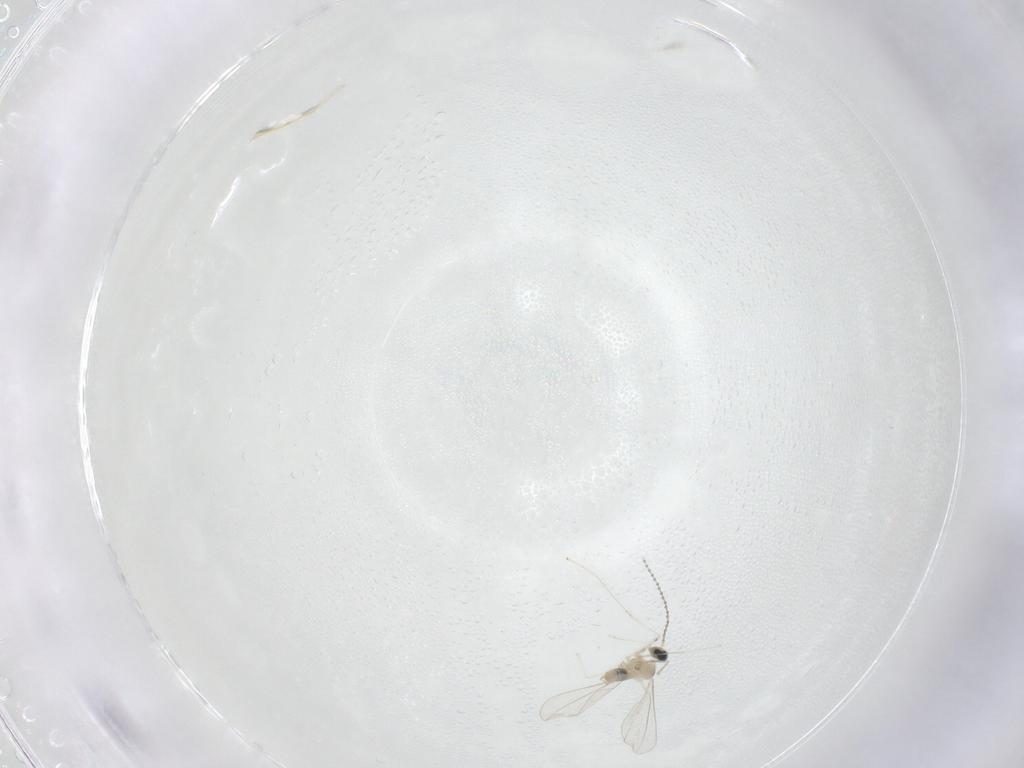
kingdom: Animalia
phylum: Arthropoda
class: Insecta
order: Diptera
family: Cecidomyiidae
